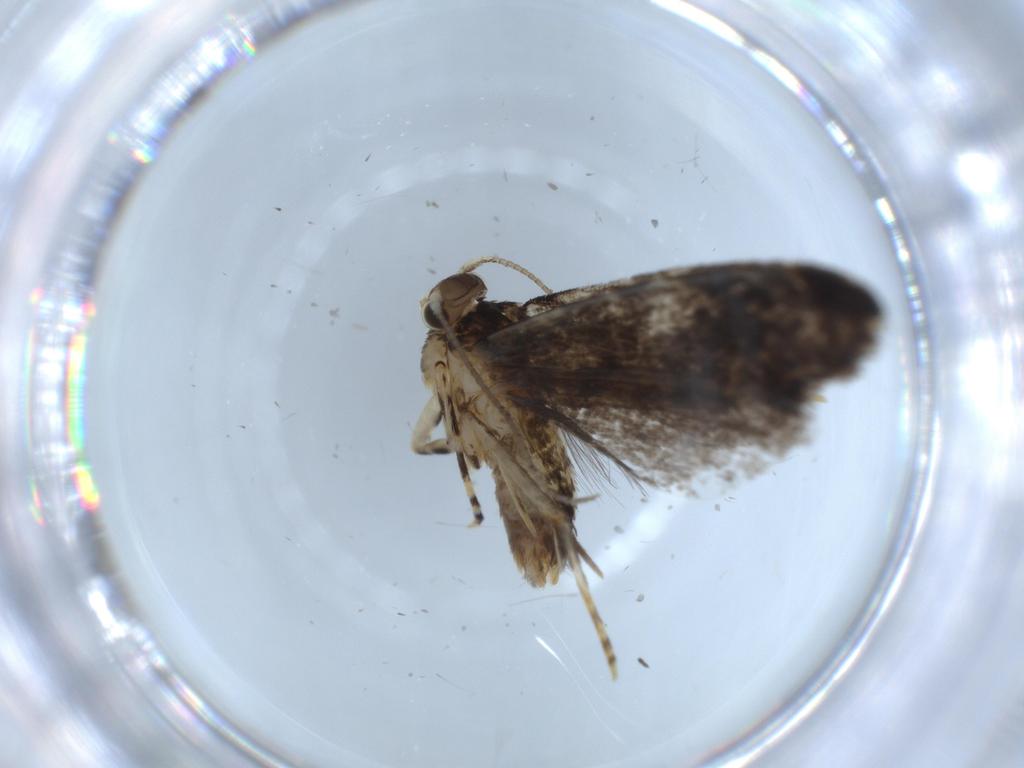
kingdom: Animalia
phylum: Arthropoda
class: Insecta
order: Lepidoptera
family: Tineidae
